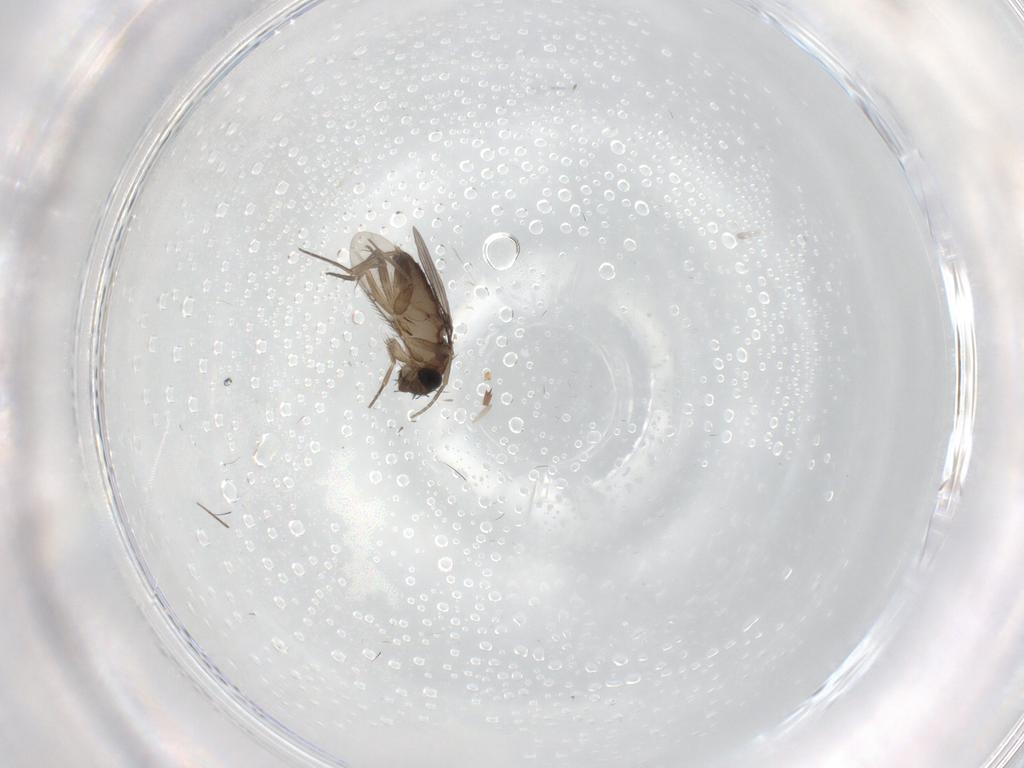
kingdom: Animalia
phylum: Arthropoda
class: Insecta
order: Diptera
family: Phoridae
